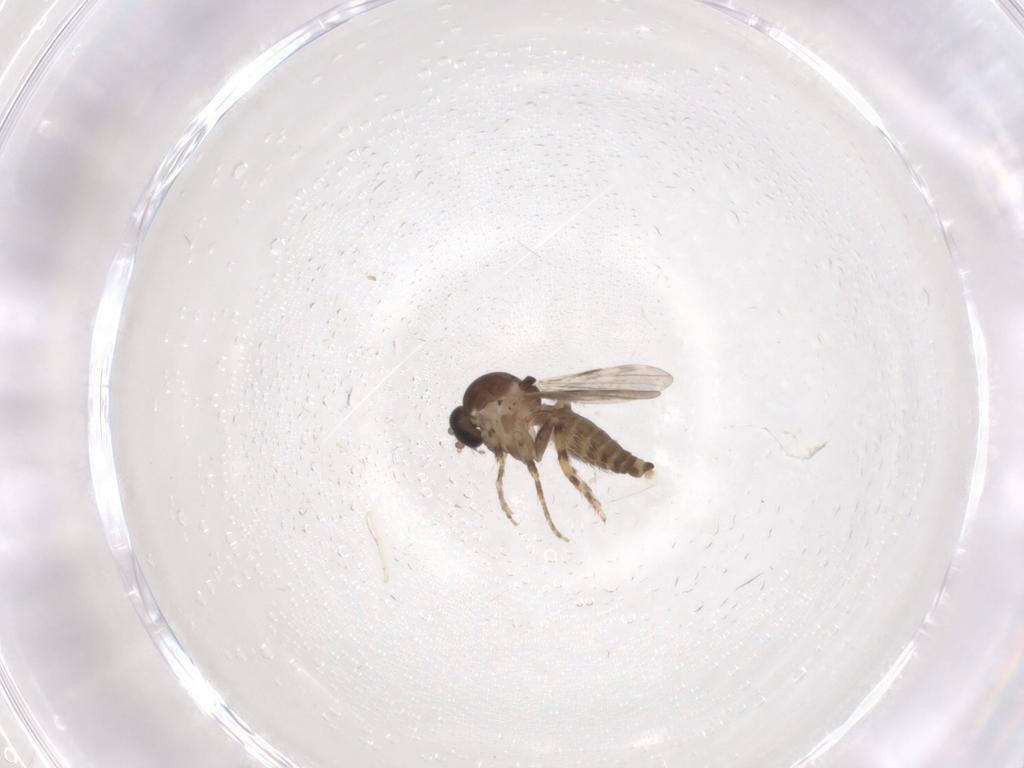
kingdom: Animalia
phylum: Arthropoda
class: Insecta
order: Diptera
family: Ceratopogonidae
